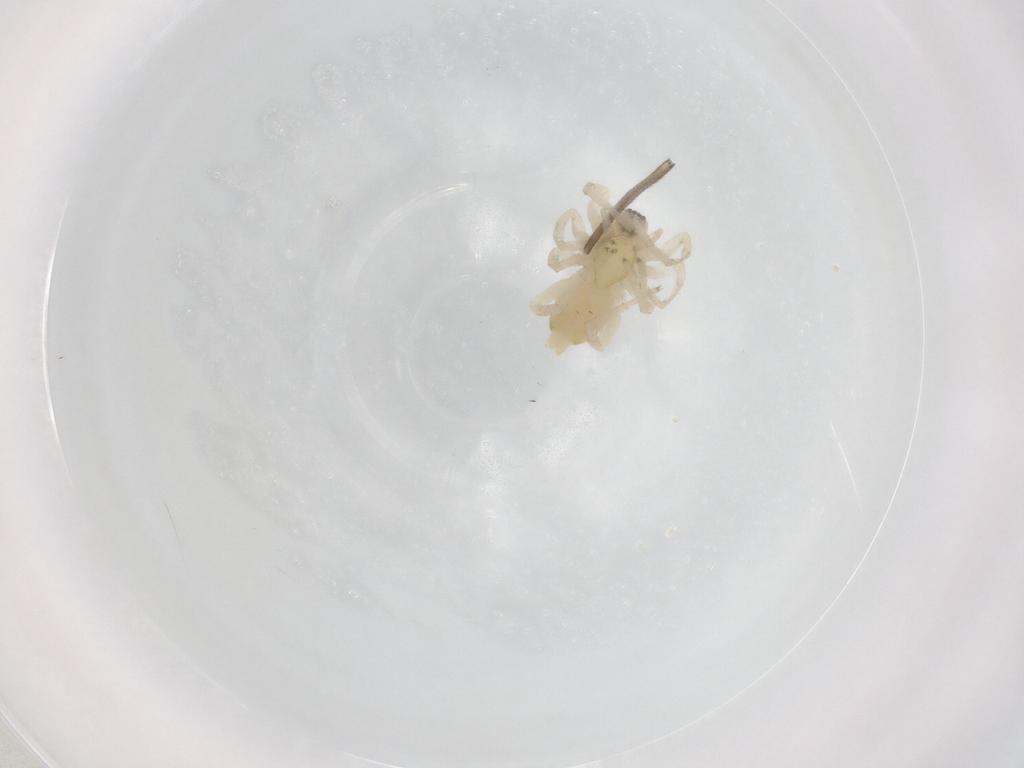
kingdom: Animalia
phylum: Arthropoda
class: Arachnida
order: Araneae
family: Anyphaenidae
